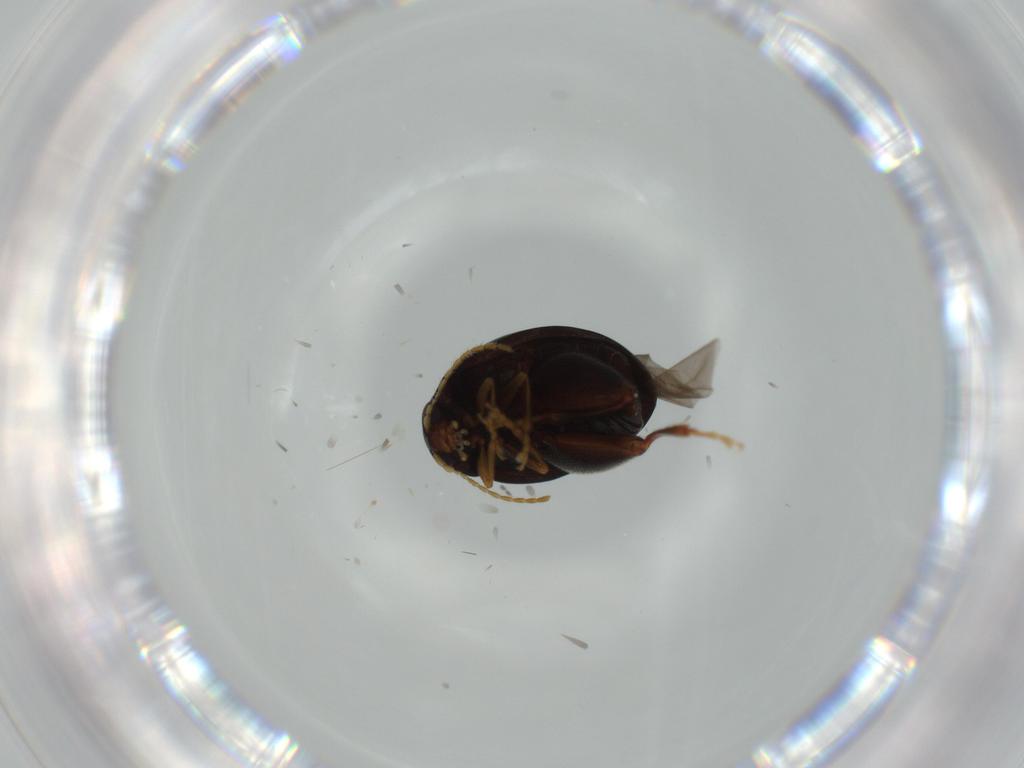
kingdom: Animalia
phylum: Arthropoda
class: Insecta
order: Coleoptera
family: Chrysomelidae
